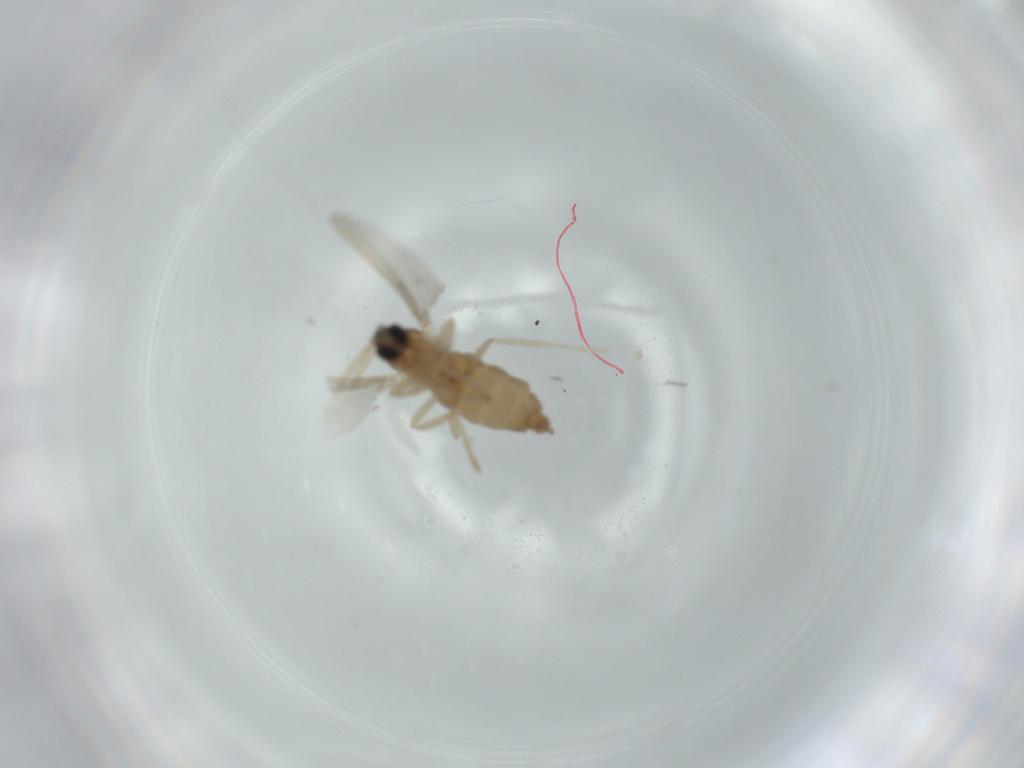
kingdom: Animalia
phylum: Arthropoda
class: Insecta
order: Diptera
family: Cecidomyiidae
